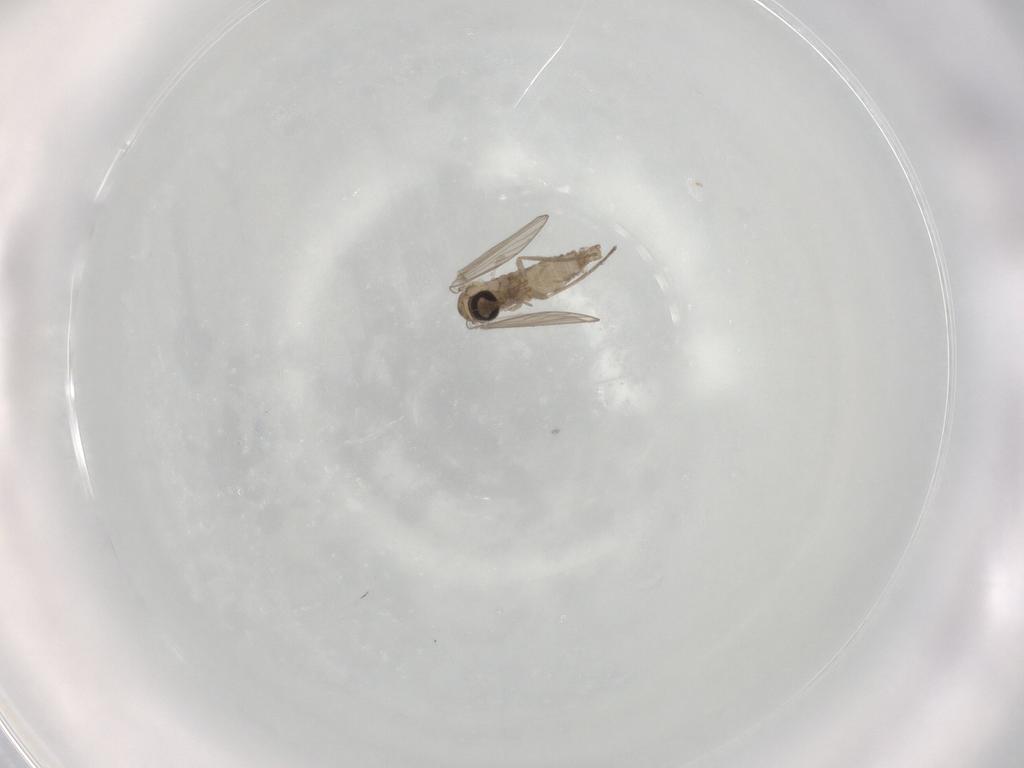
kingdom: Animalia
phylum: Arthropoda
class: Insecta
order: Diptera
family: Psychodidae
